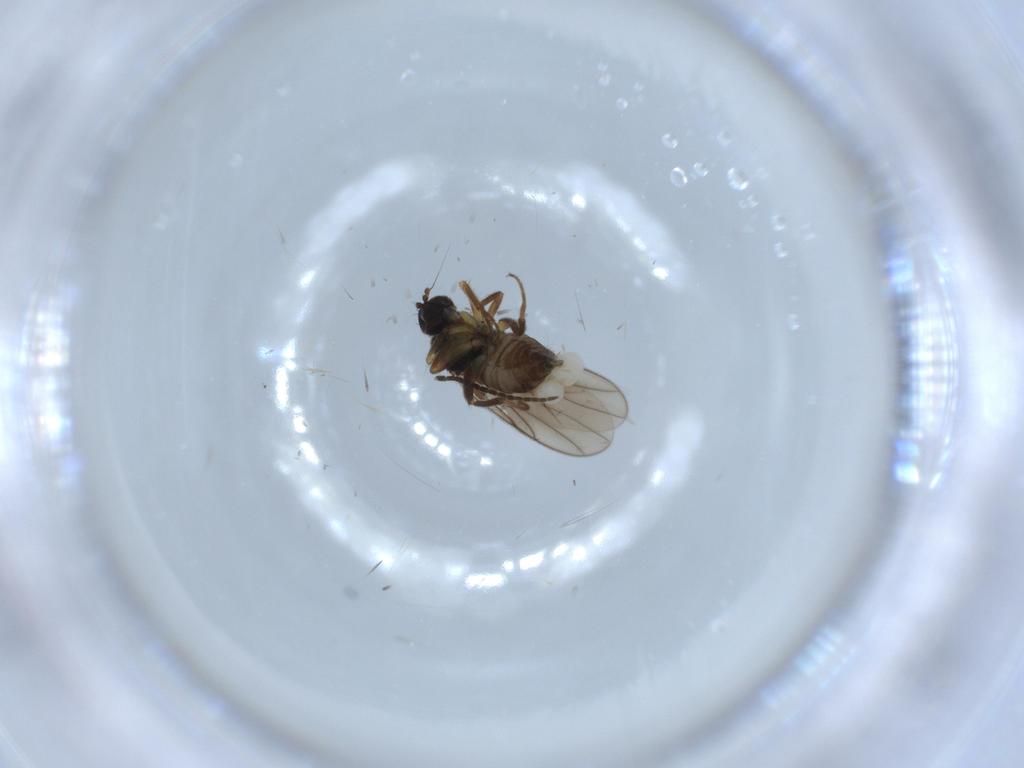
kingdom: Animalia
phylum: Arthropoda
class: Insecta
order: Diptera
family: Hybotidae
